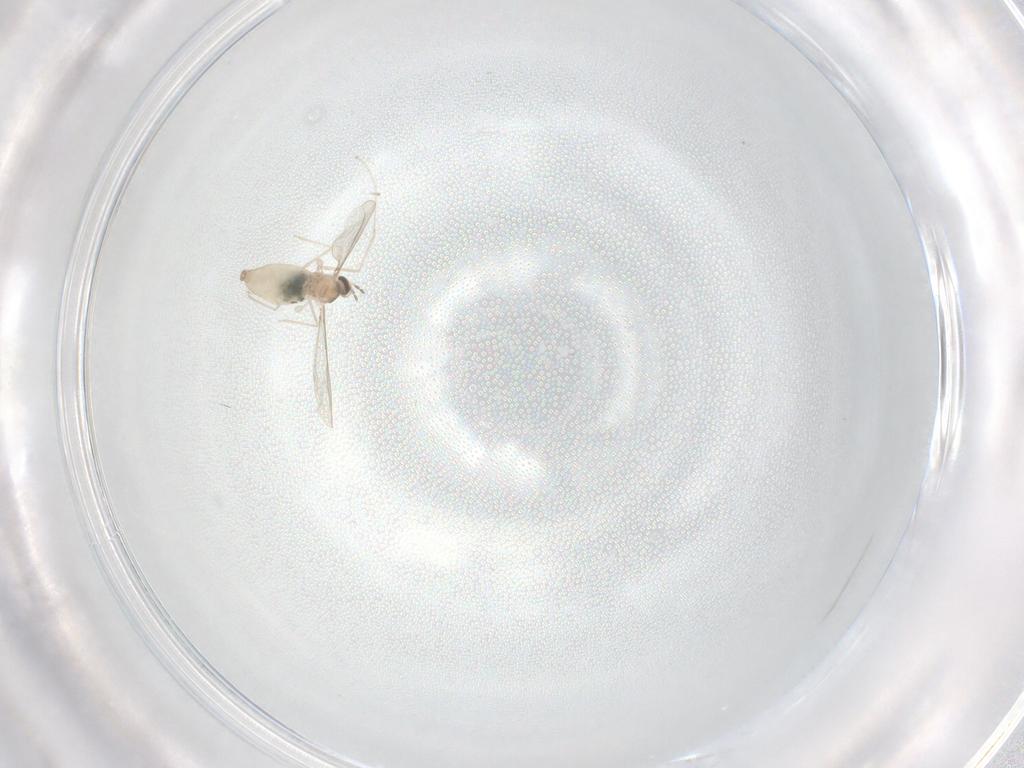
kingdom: Animalia
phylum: Arthropoda
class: Insecta
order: Diptera
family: Cecidomyiidae
